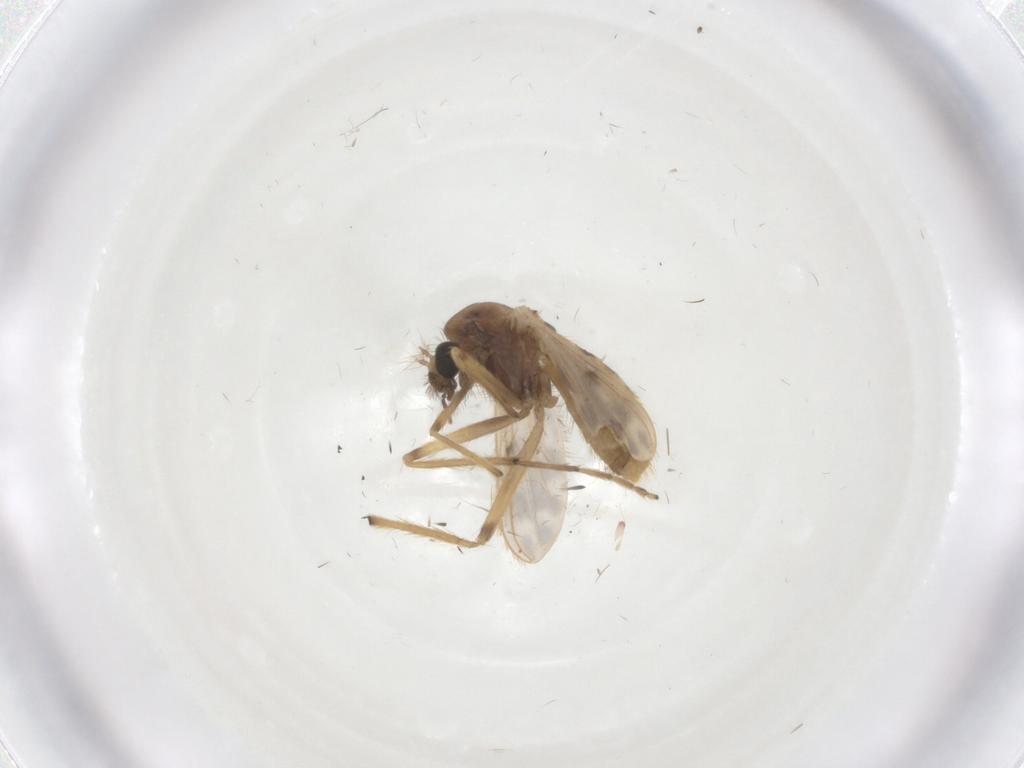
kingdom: Animalia
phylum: Arthropoda
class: Insecta
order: Diptera
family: Chironomidae
